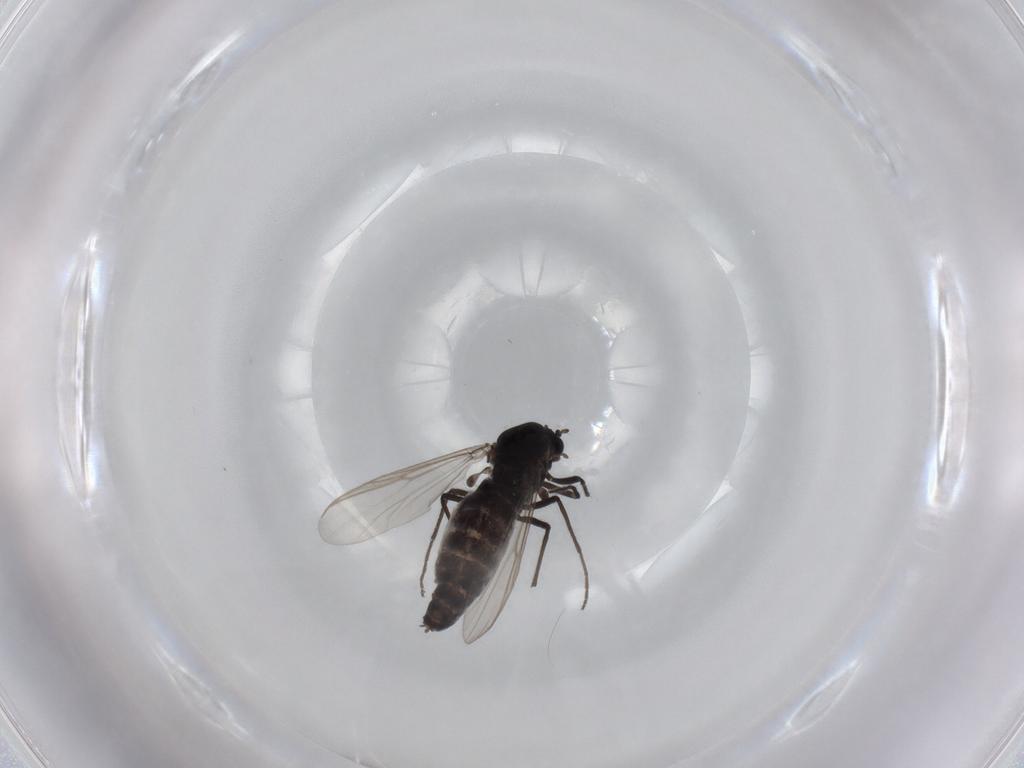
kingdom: Animalia
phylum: Arthropoda
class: Insecta
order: Diptera
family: Chironomidae
